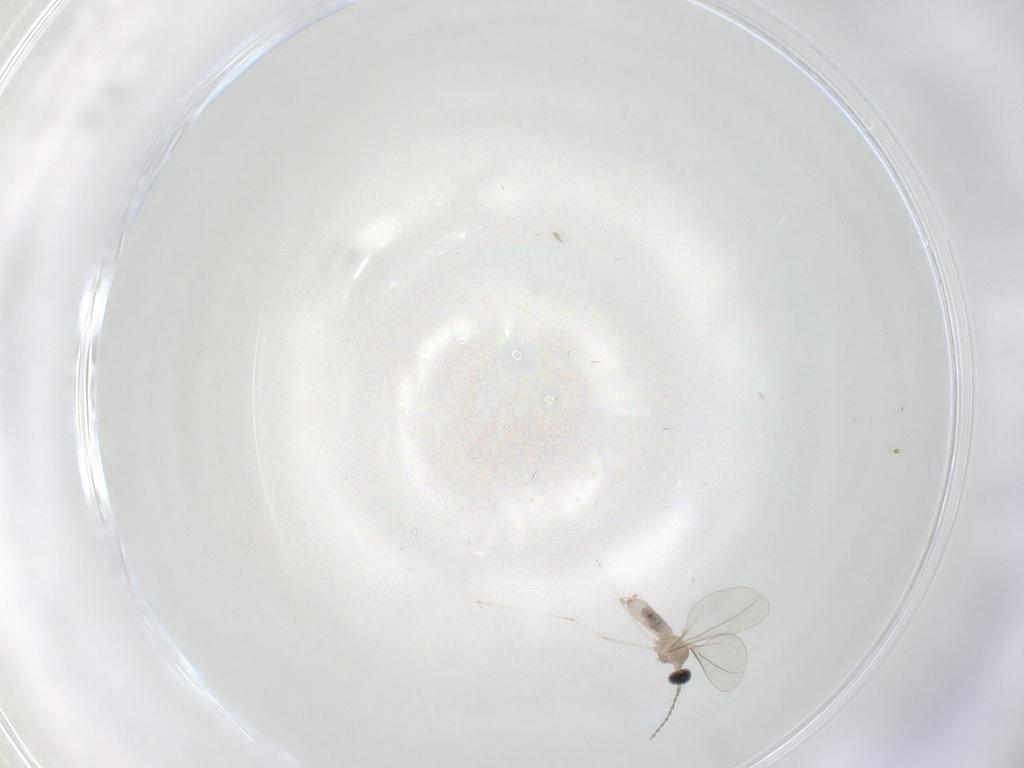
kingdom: Animalia
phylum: Arthropoda
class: Insecta
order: Diptera
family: Cecidomyiidae
